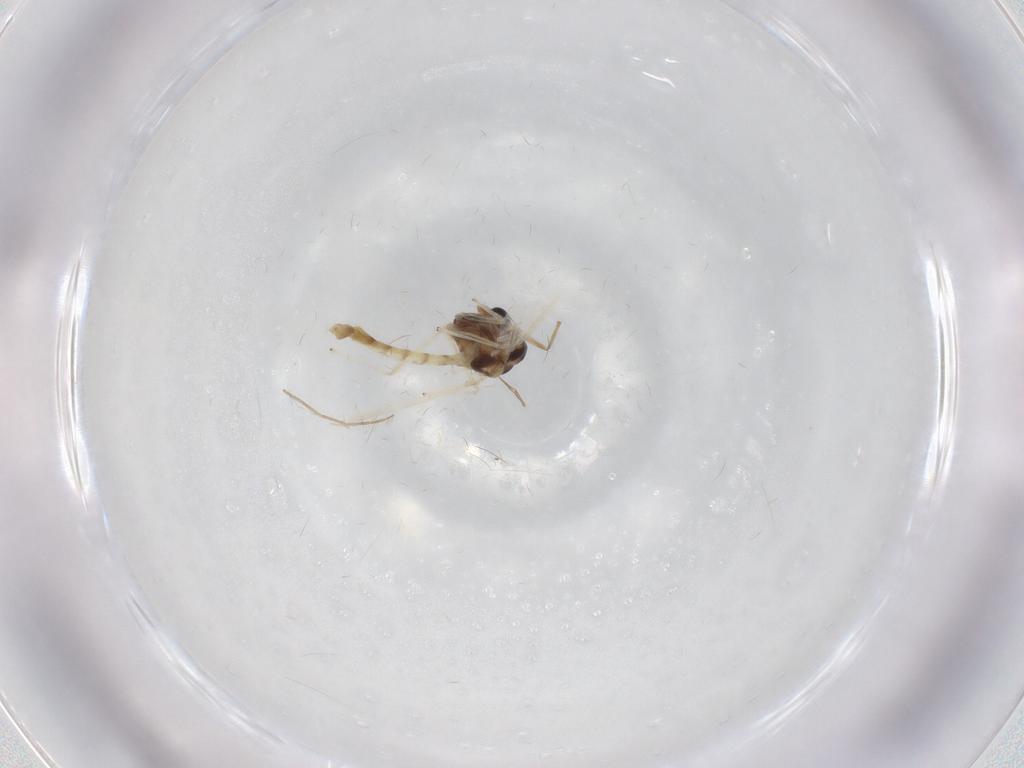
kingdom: Animalia
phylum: Arthropoda
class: Insecta
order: Diptera
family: Chironomidae
